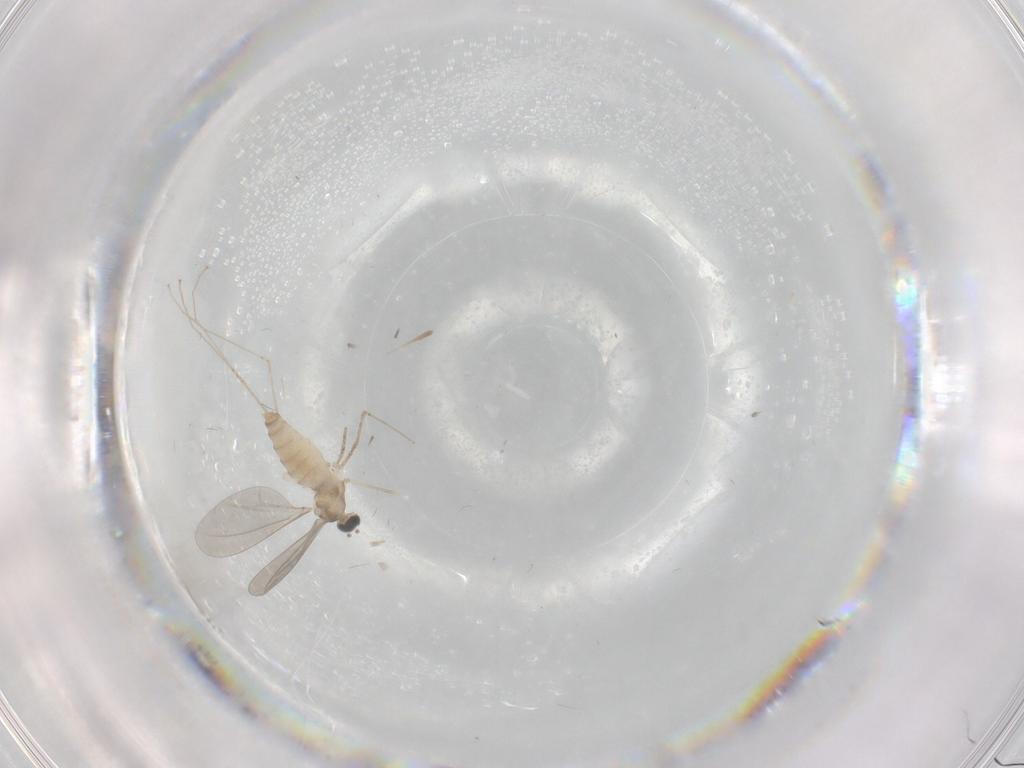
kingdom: Animalia
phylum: Arthropoda
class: Insecta
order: Diptera
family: Cecidomyiidae
